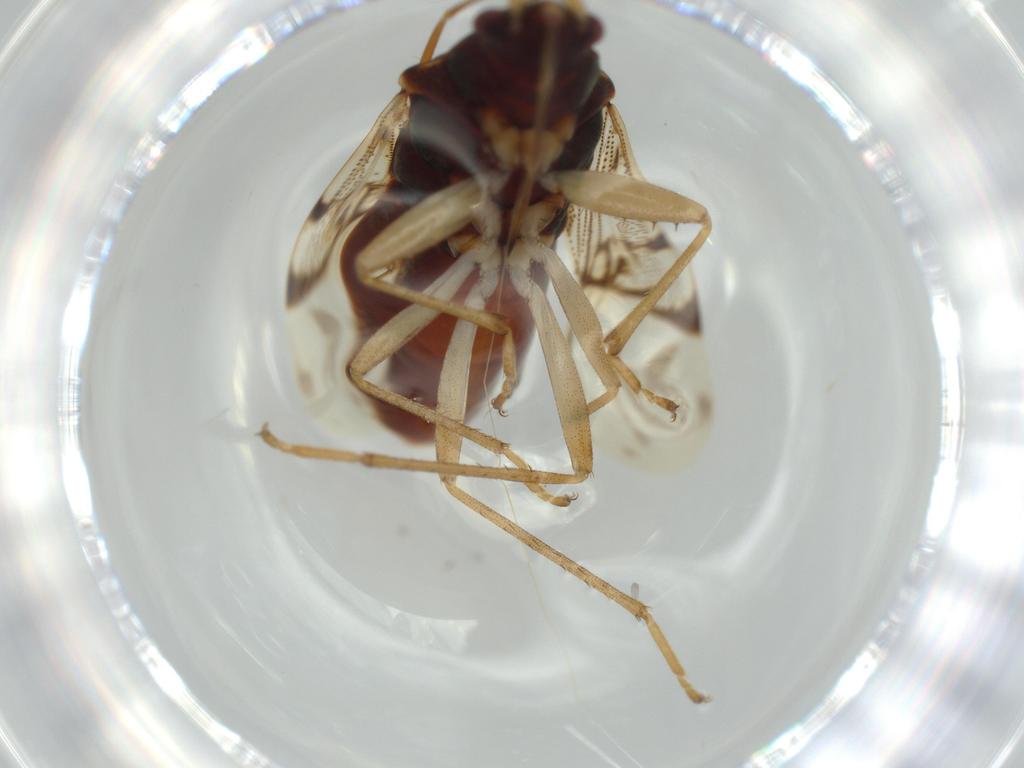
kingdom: Animalia
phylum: Arthropoda
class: Insecta
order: Hemiptera
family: Rhyparochromidae
